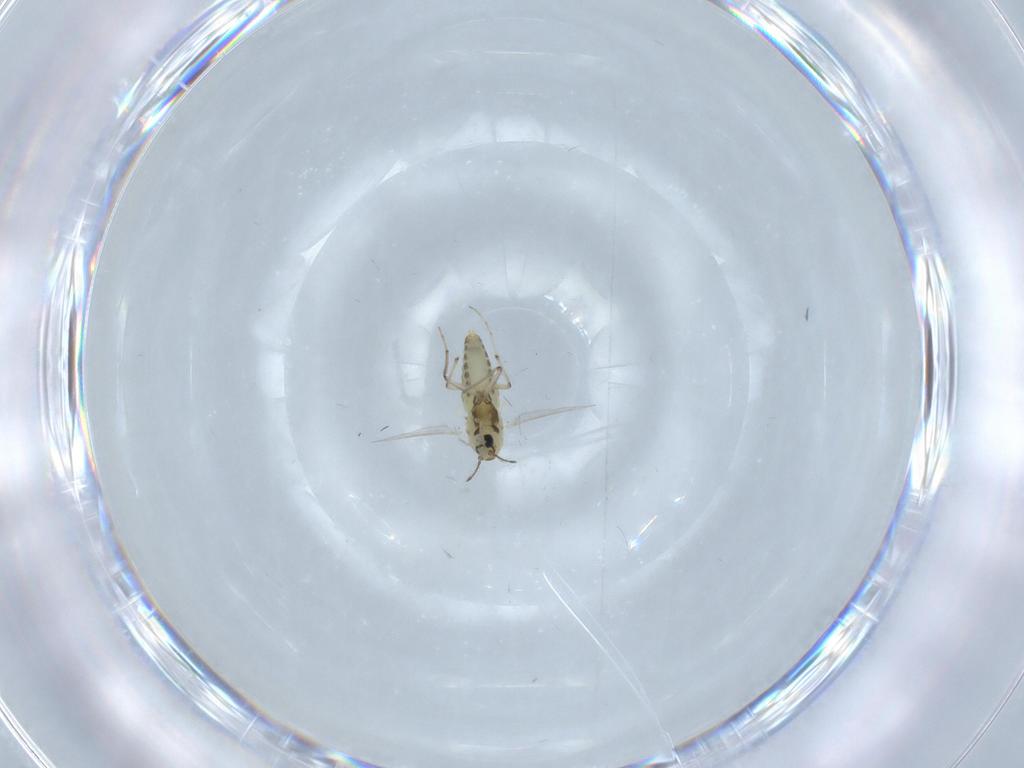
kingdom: Animalia
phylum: Arthropoda
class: Insecta
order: Diptera
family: Chironomidae
